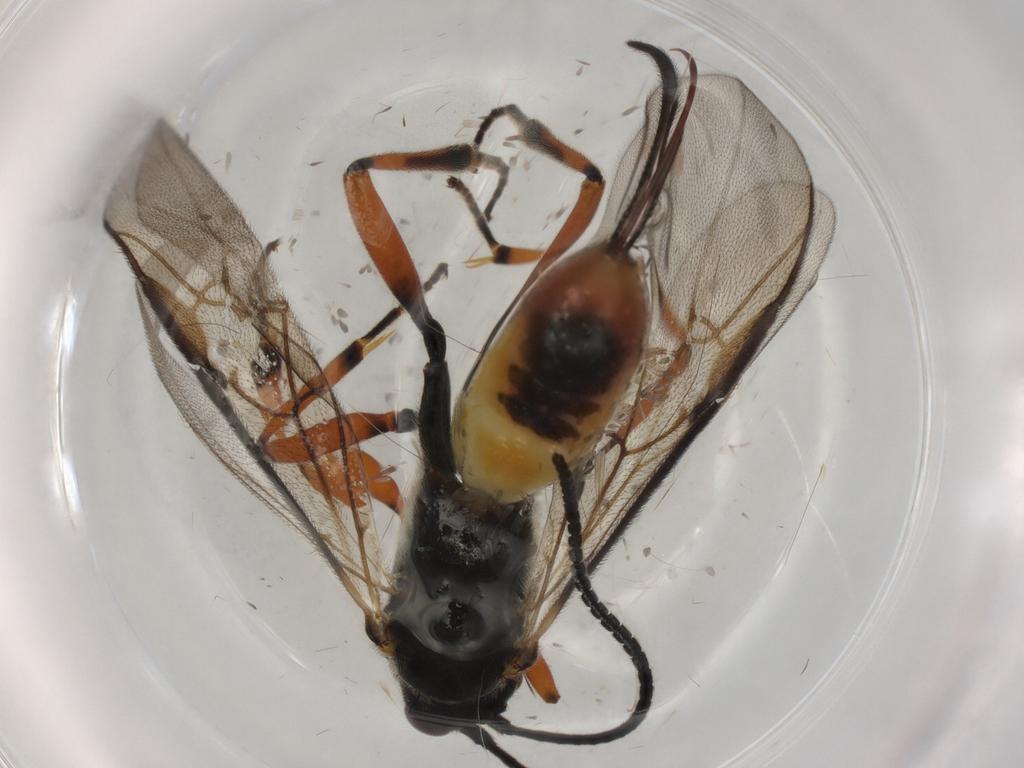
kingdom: Animalia
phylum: Arthropoda
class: Insecta
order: Hymenoptera
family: Braconidae
